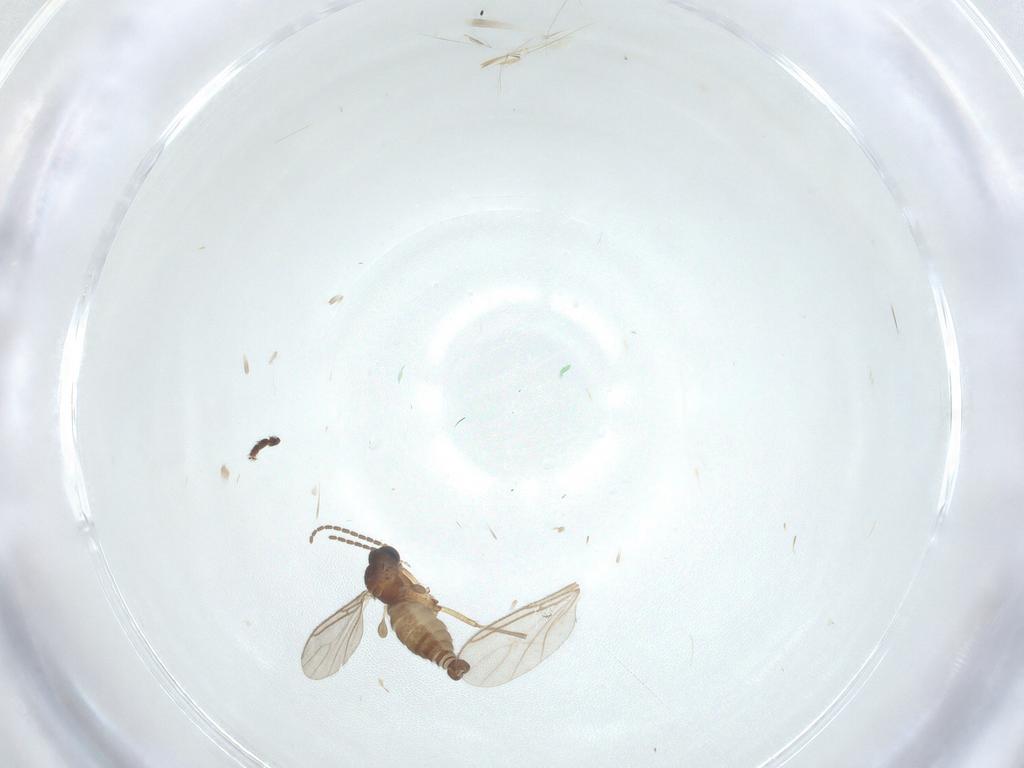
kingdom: Animalia
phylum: Arthropoda
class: Insecta
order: Diptera
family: Tachinidae
